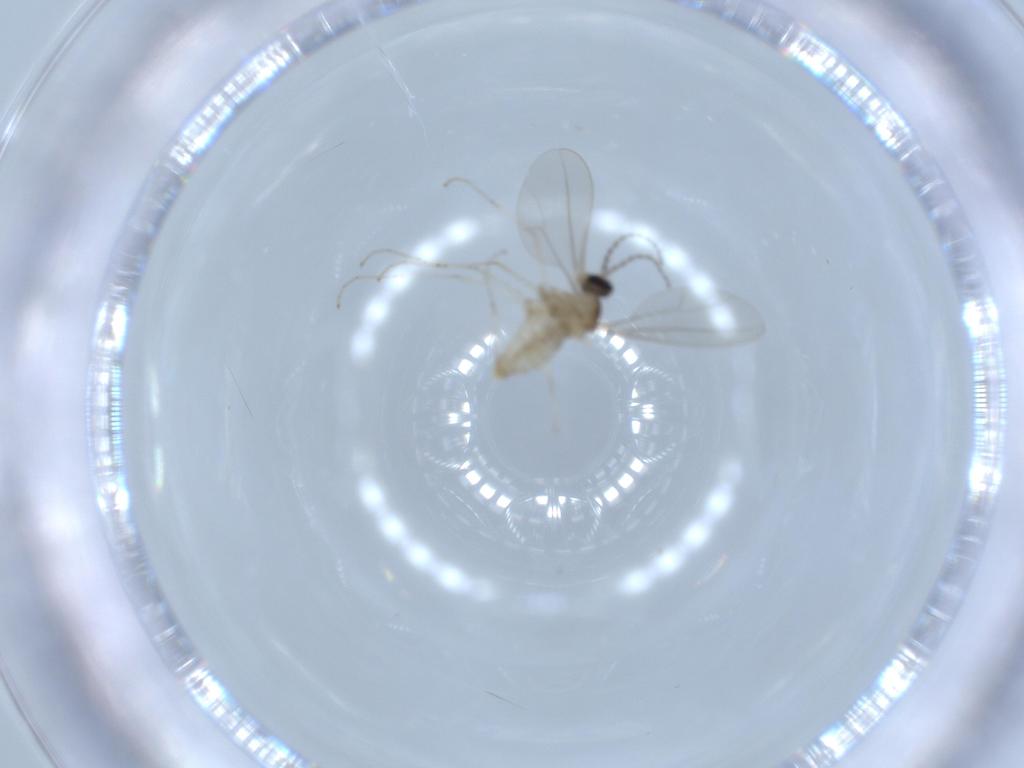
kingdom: Animalia
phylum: Arthropoda
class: Insecta
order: Diptera
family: Cecidomyiidae
